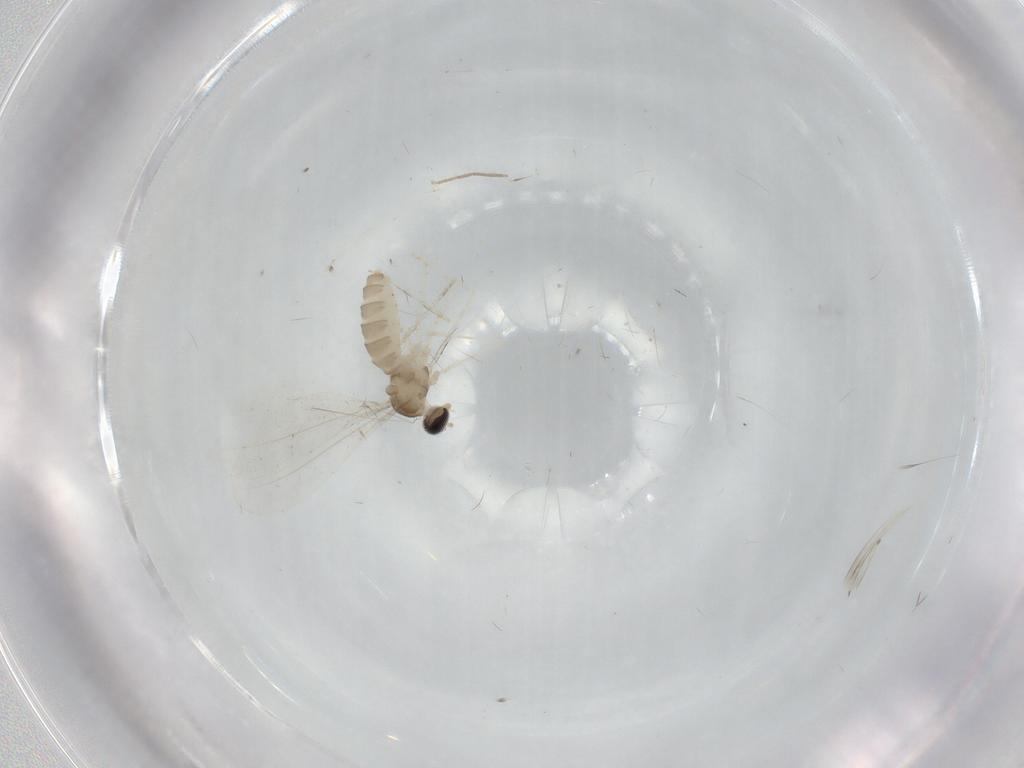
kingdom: Animalia
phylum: Arthropoda
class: Insecta
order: Diptera
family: Cecidomyiidae
